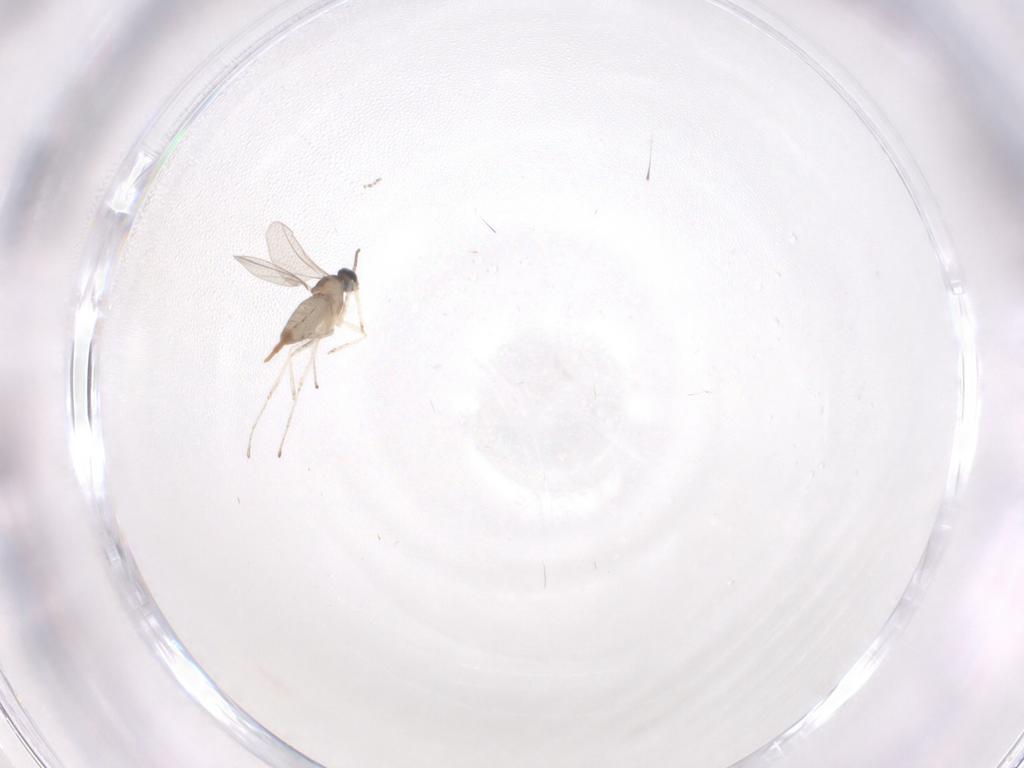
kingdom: Animalia
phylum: Arthropoda
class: Insecta
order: Diptera
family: Cecidomyiidae
